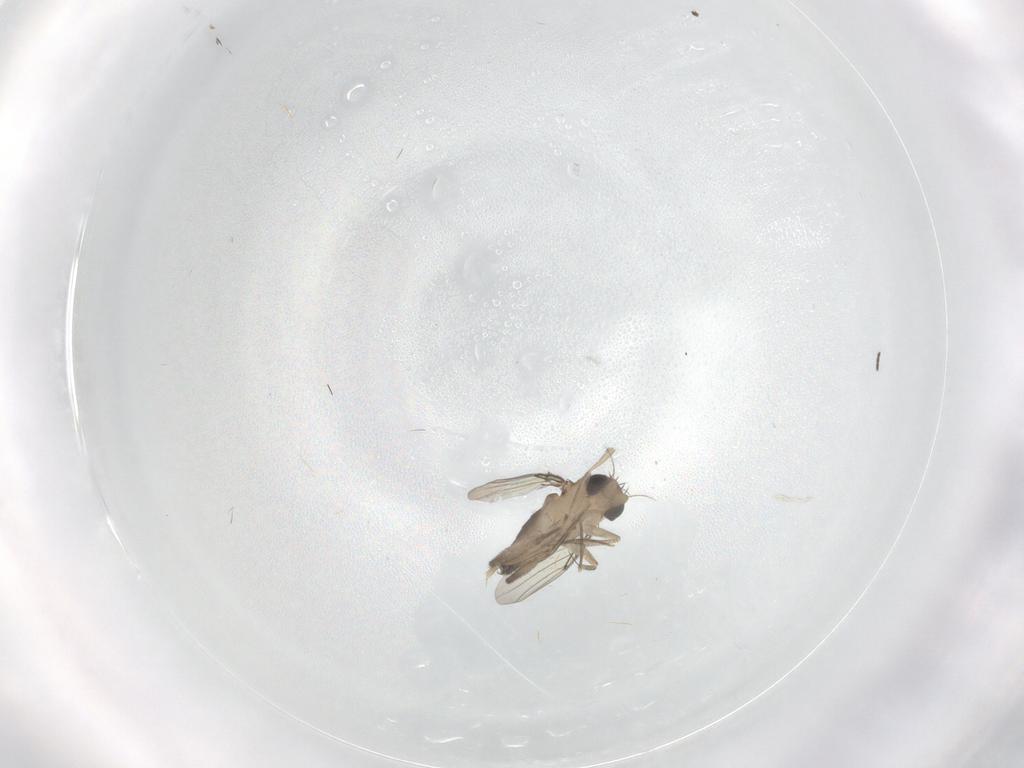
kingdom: Animalia
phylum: Arthropoda
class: Insecta
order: Diptera
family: Phoridae
